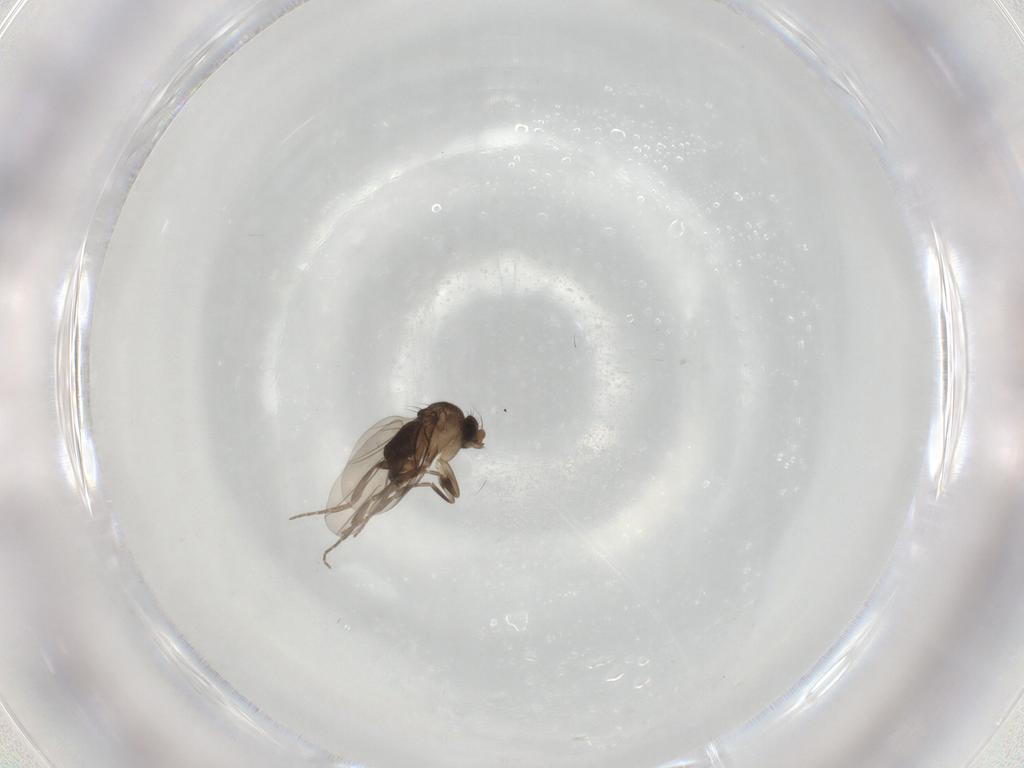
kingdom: Animalia
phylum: Arthropoda
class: Insecta
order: Diptera
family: Phoridae
